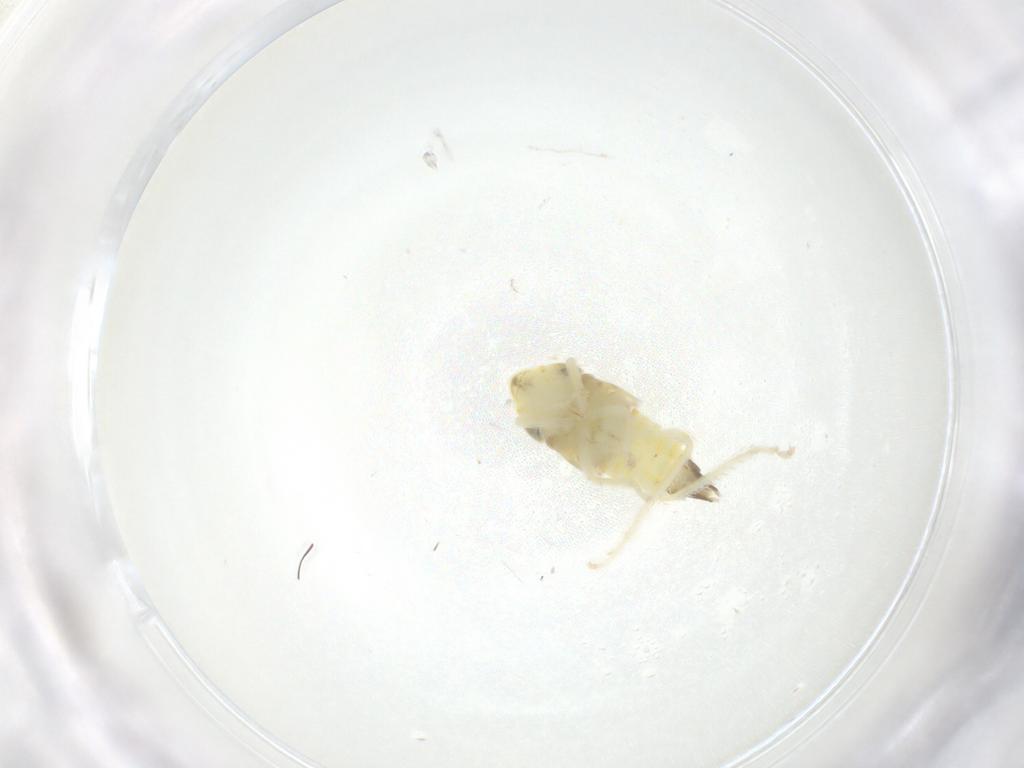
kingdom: Animalia
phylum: Arthropoda
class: Insecta
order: Hemiptera
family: Cicadellidae
